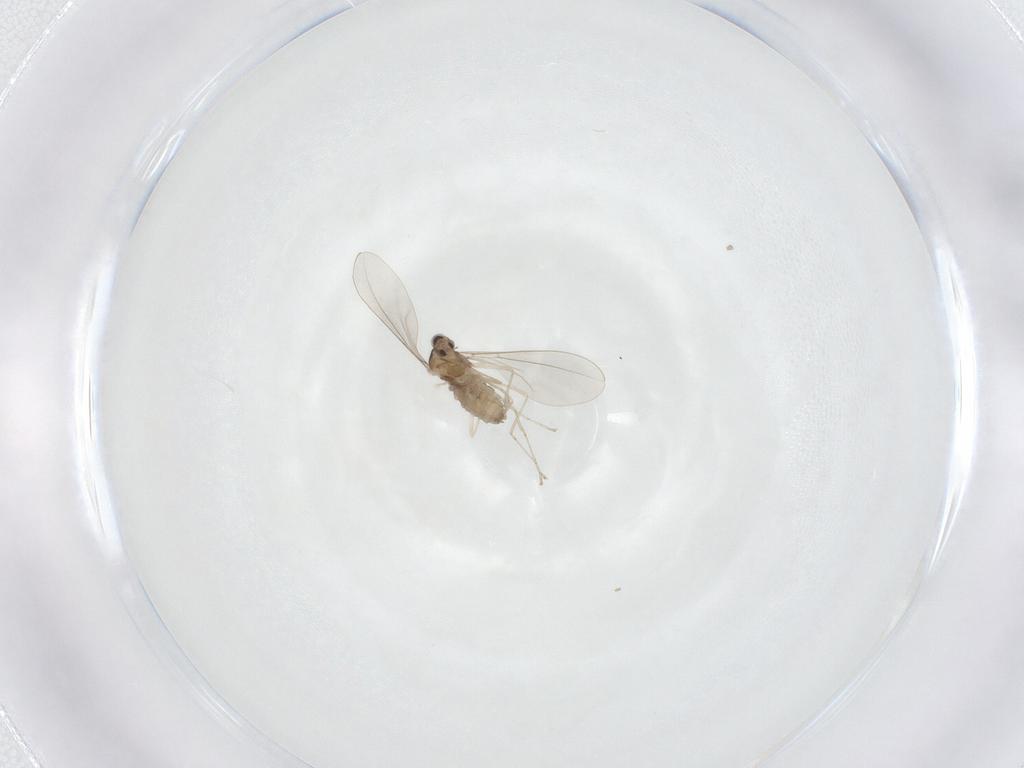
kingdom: Animalia
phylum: Arthropoda
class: Insecta
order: Diptera
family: Cecidomyiidae
